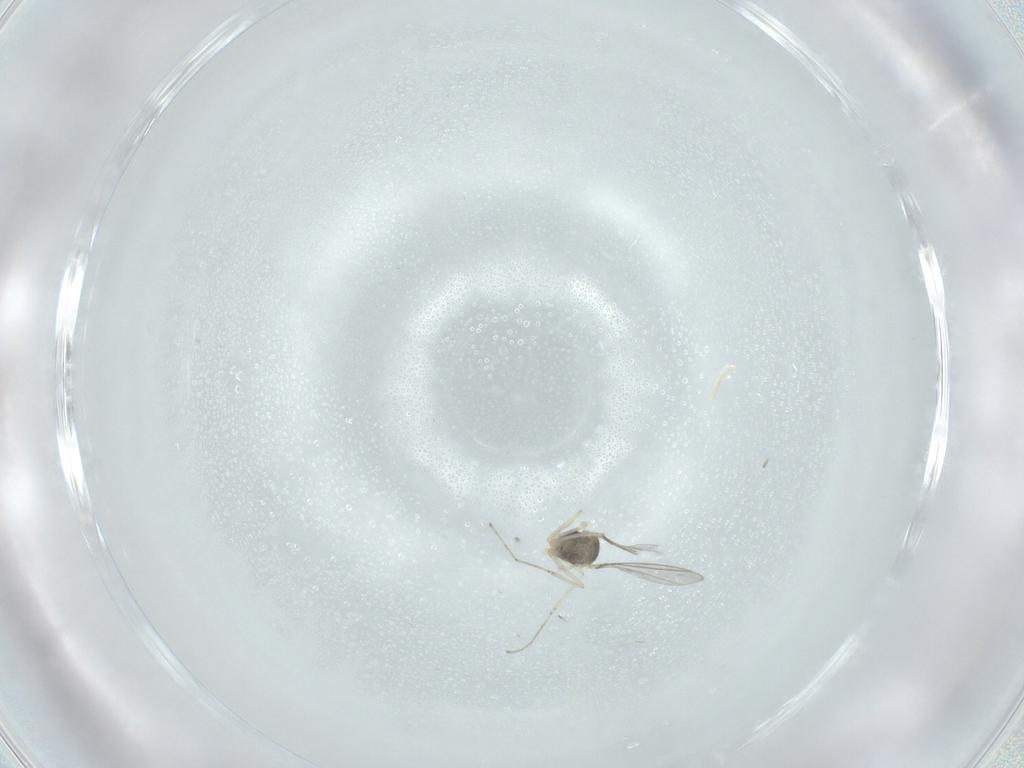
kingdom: Animalia
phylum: Arthropoda
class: Insecta
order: Diptera
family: Cecidomyiidae
